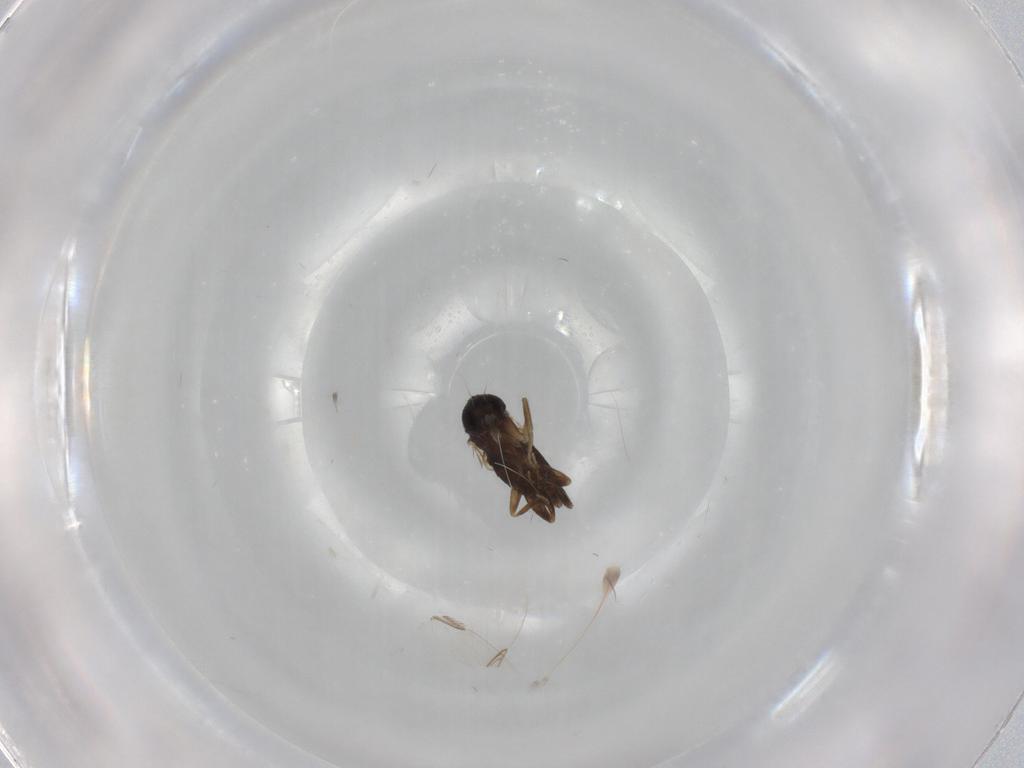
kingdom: Animalia
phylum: Arthropoda
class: Insecta
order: Diptera
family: Phoridae
